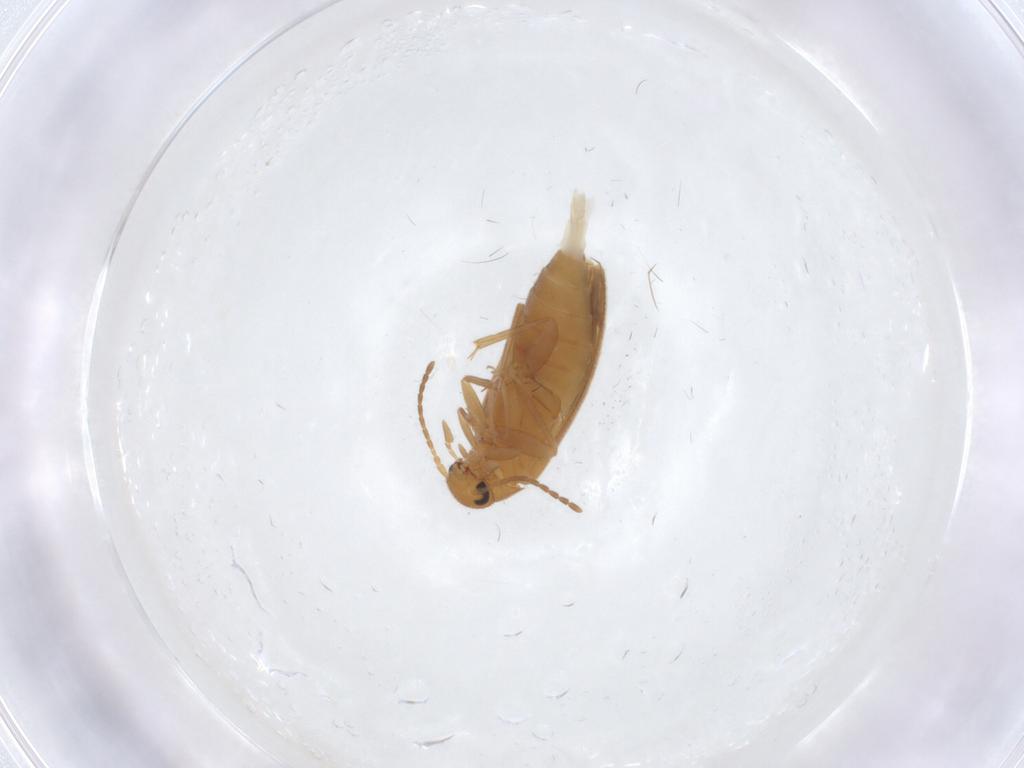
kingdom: Animalia
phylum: Arthropoda
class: Insecta
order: Coleoptera
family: Scraptiidae
